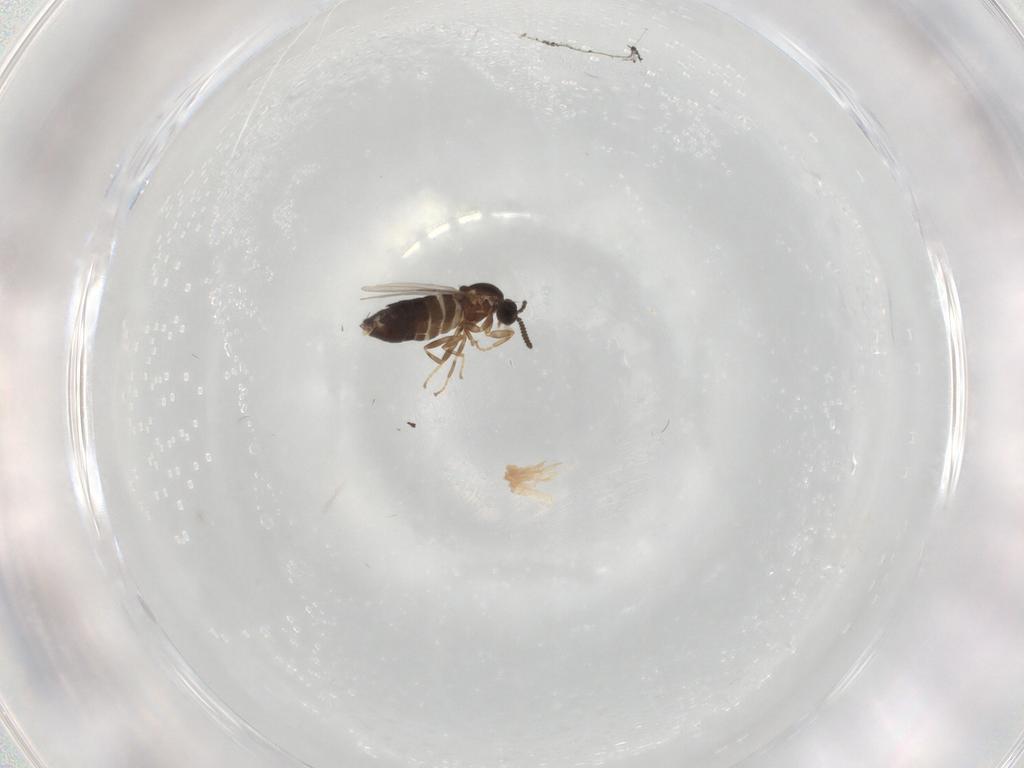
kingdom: Animalia
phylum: Arthropoda
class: Insecta
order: Diptera
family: Scatopsidae
